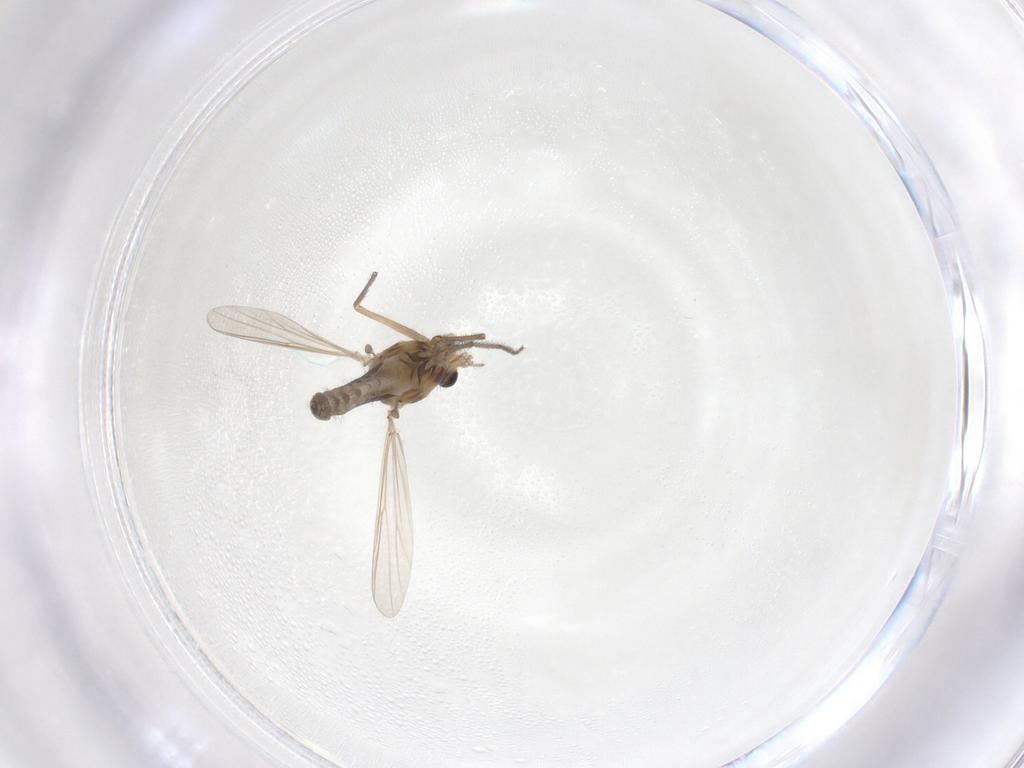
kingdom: Animalia
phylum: Arthropoda
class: Insecta
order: Diptera
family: Chironomidae
